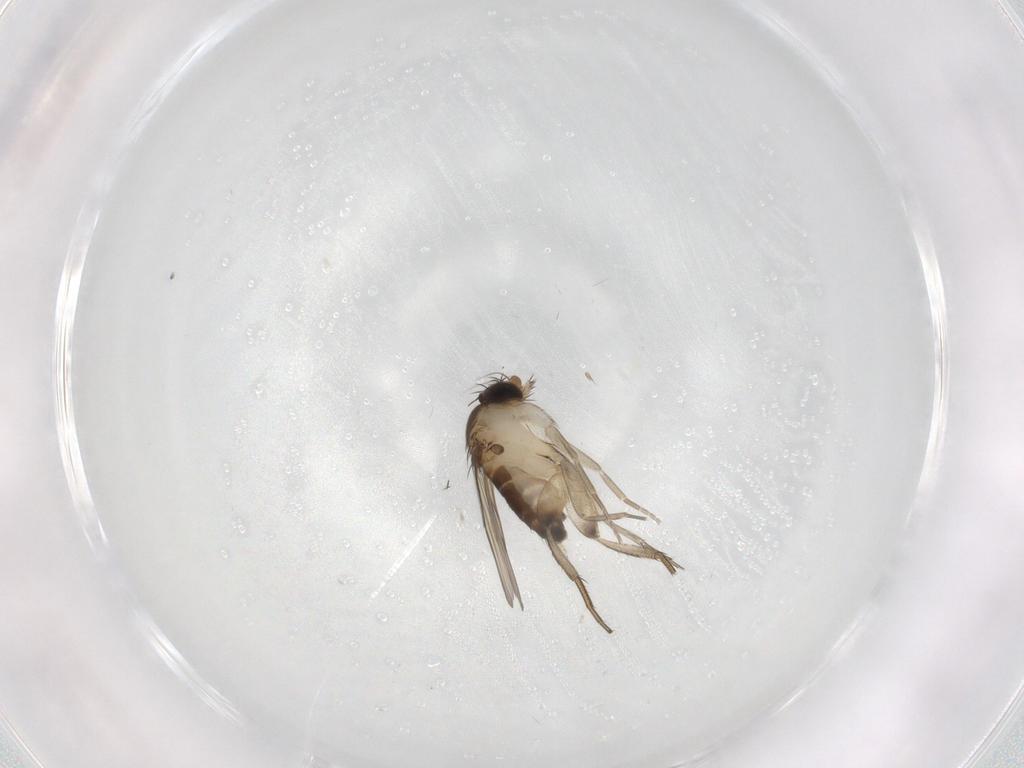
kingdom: Animalia
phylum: Arthropoda
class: Insecta
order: Diptera
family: Phoridae
